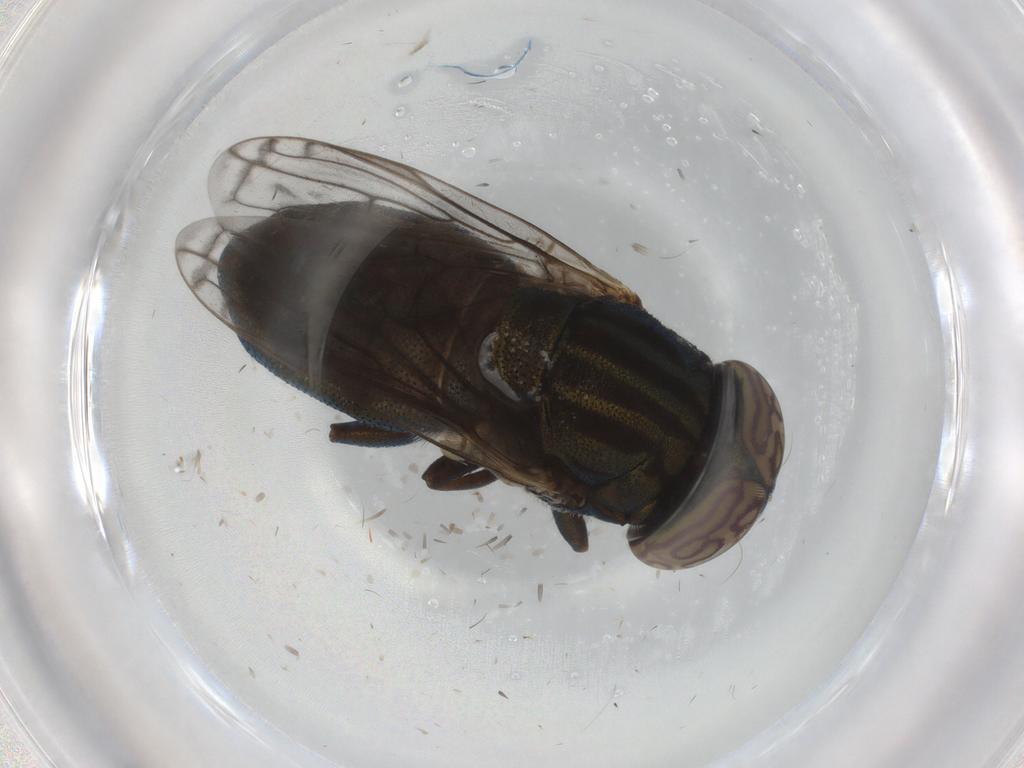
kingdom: Animalia
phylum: Arthropoda
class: Insecta
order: Diptera
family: Syrphidae
